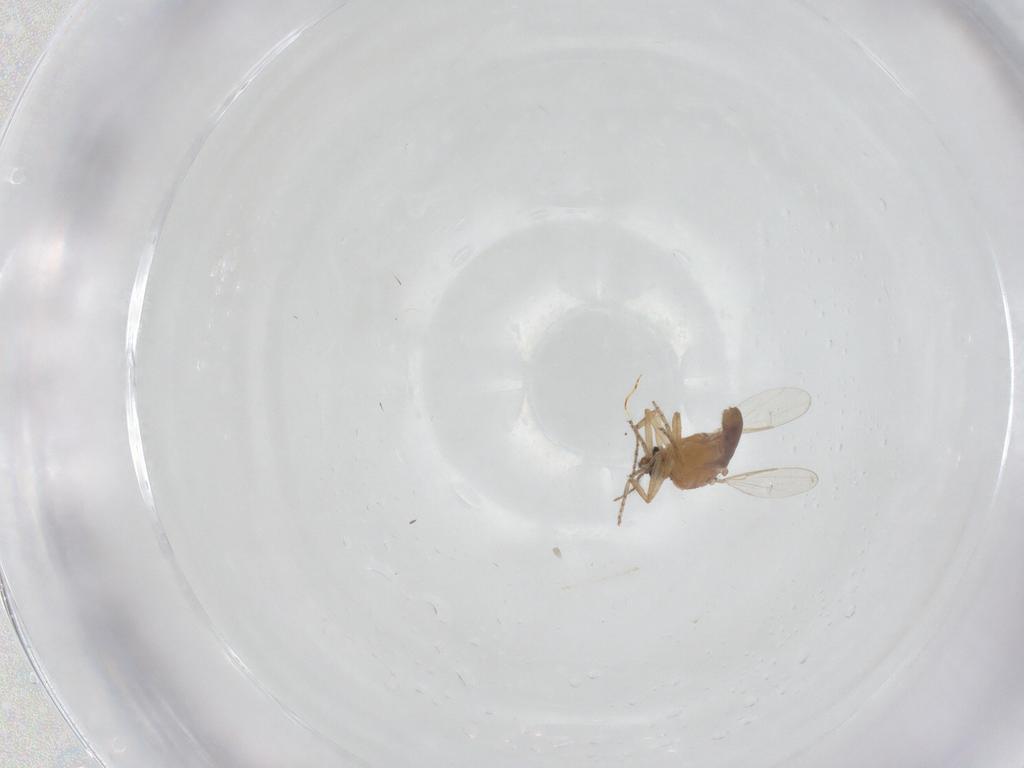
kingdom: Animalia
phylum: Arthropoda
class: Insecta
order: Diptera
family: Ceratopogonidae
